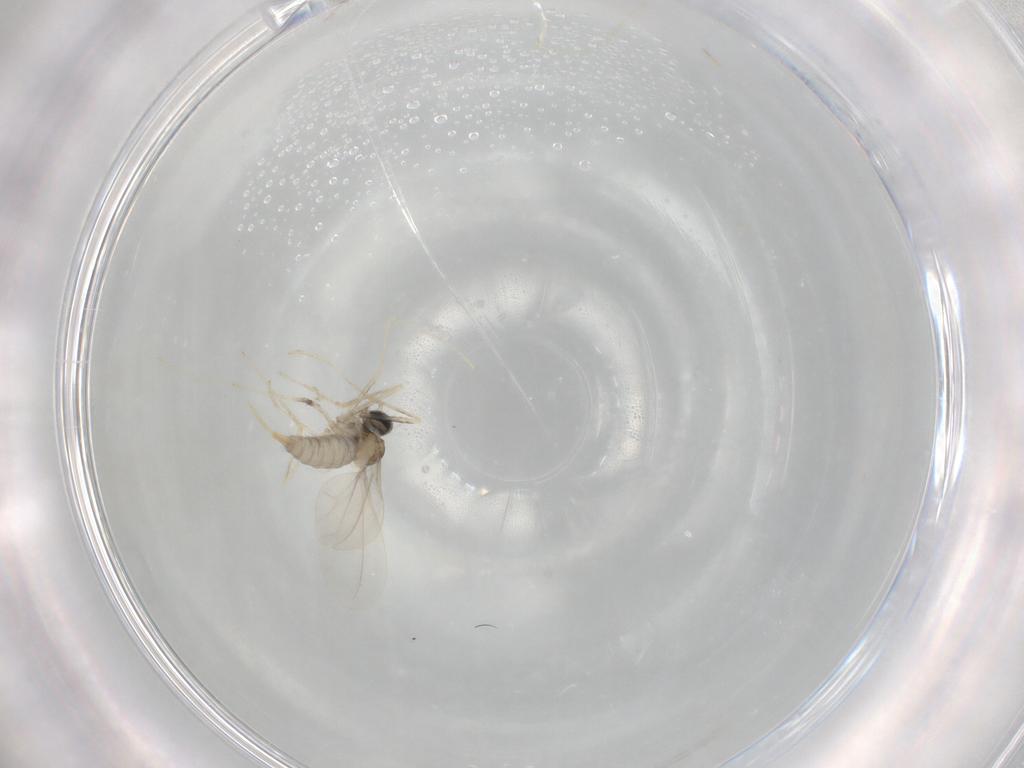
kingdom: Animalia
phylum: Arthropoda
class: Insecta
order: Diptera
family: Cecidomyiidae
